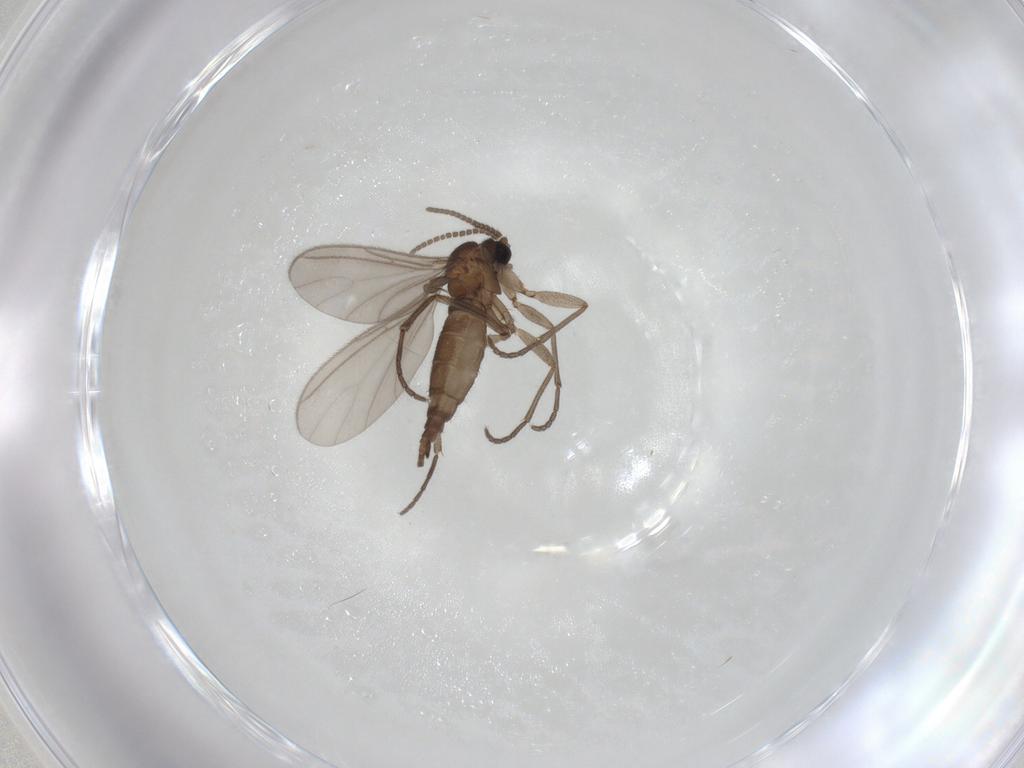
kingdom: Animalia
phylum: Arthropoda
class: Insecta
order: Diptera
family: Sciaridae
